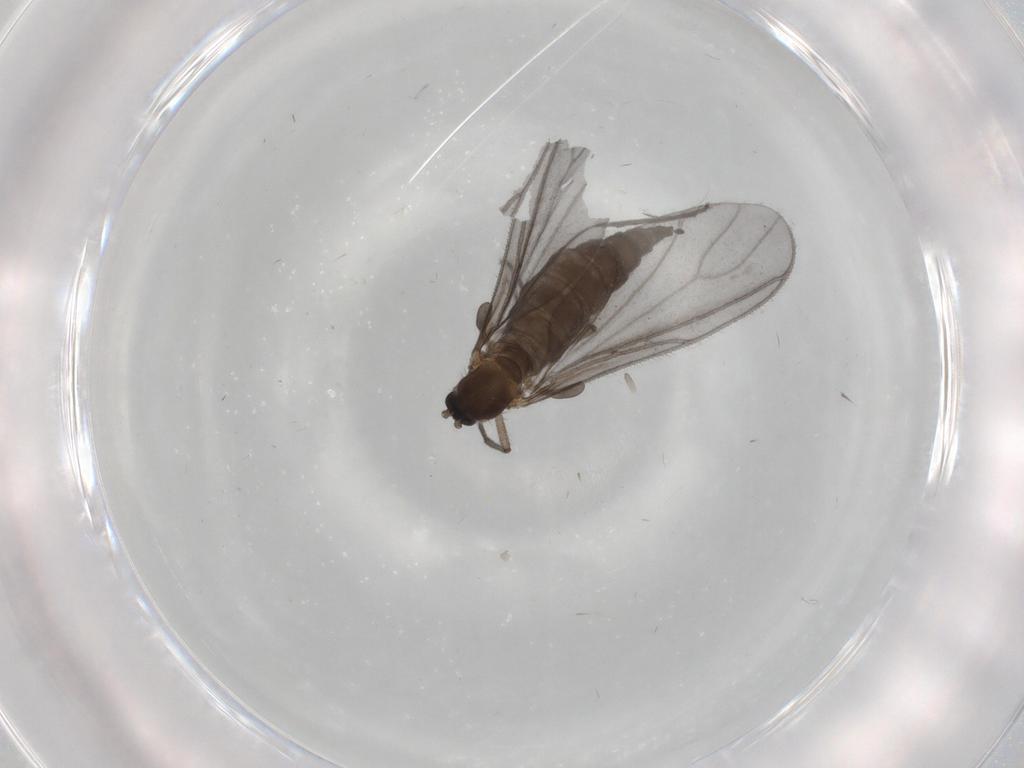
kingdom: Animalia
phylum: Arthropoda
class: Insecta
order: Diptera
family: Sciaridae
